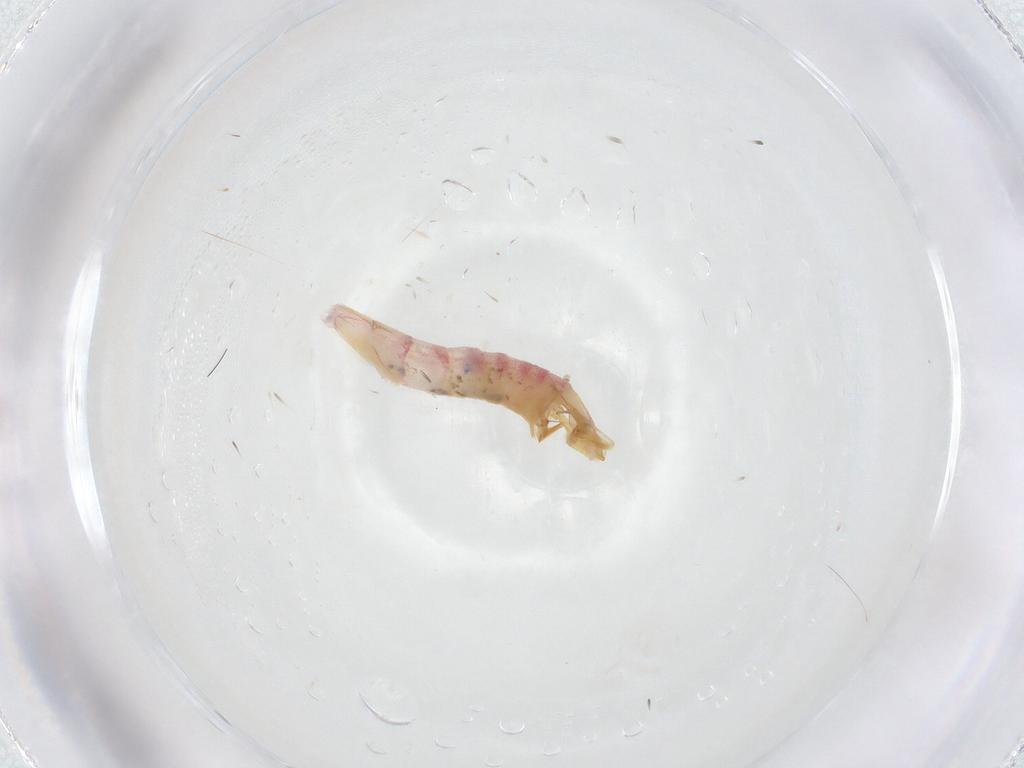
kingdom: Animalia
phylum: Arthropoda
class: Insecta
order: Lepidoptera
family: Crambidae
